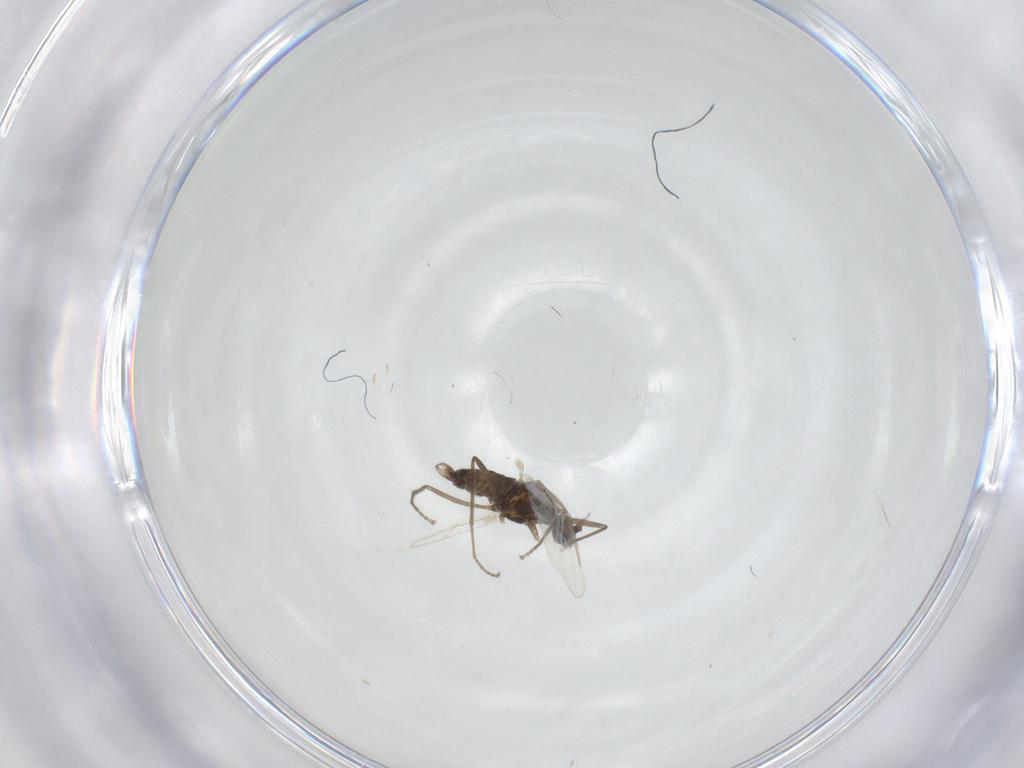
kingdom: Animalia
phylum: Arthropoda
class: Insecta
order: Diptera
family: Cecidomyiidae
